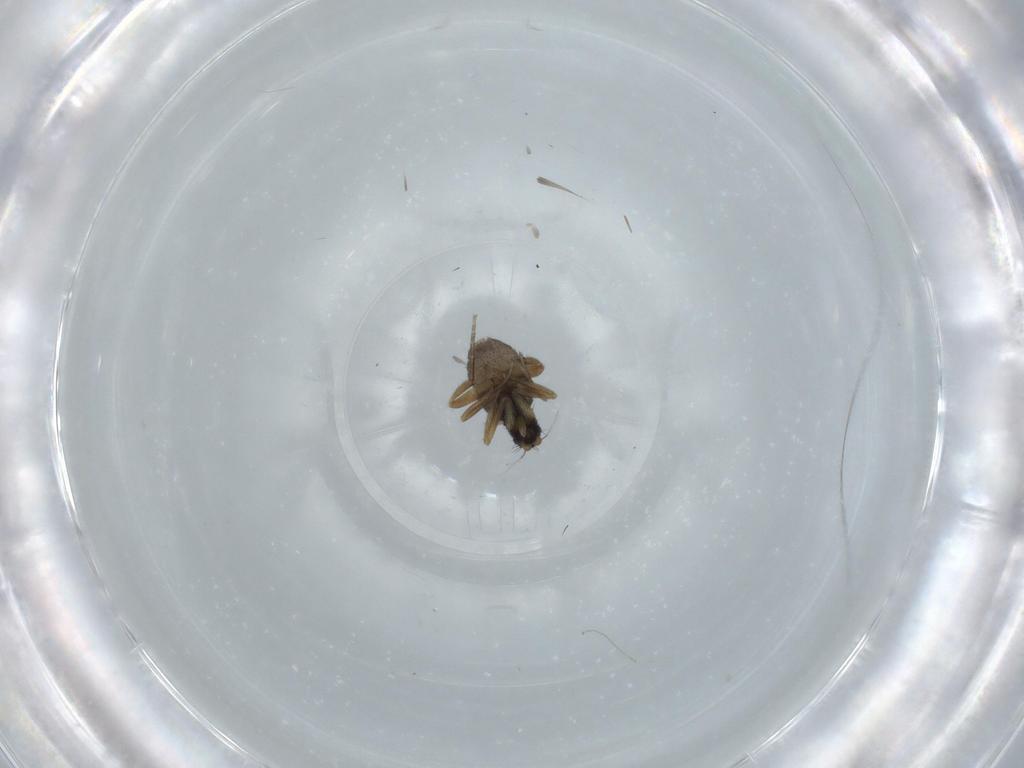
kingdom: Animalia
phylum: Arthropoda
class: Insecta
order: Diptera
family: Phoridae
